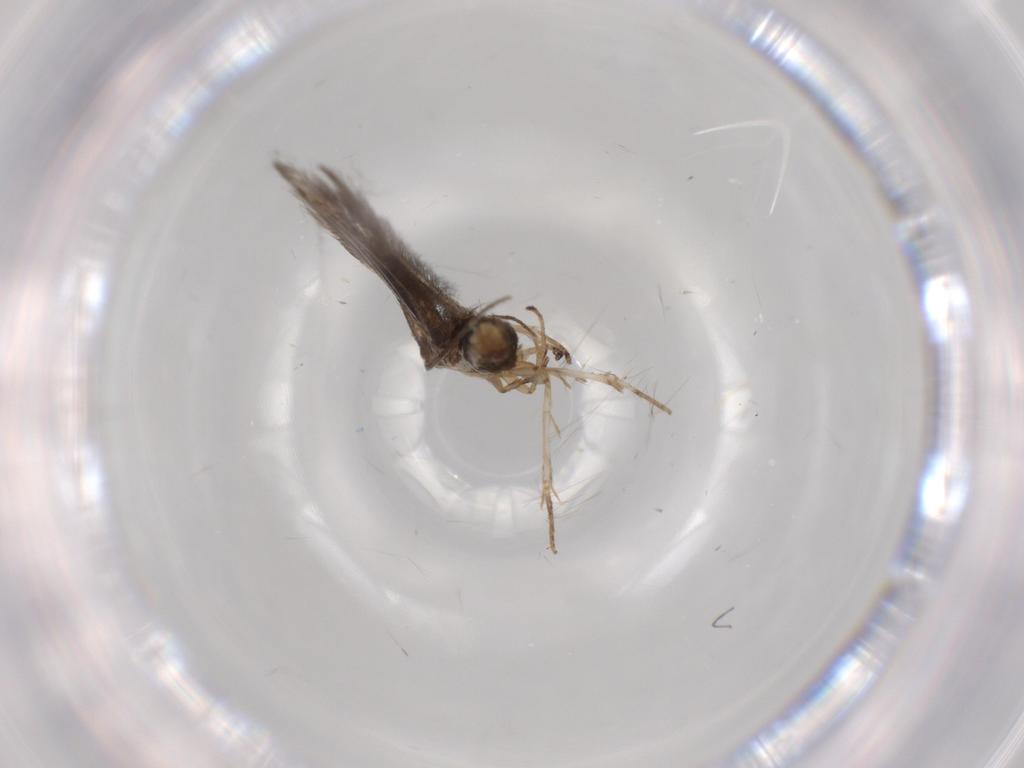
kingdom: Animalia
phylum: Arthropoda
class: Insecta
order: Lepidoptera
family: Elachistidae
